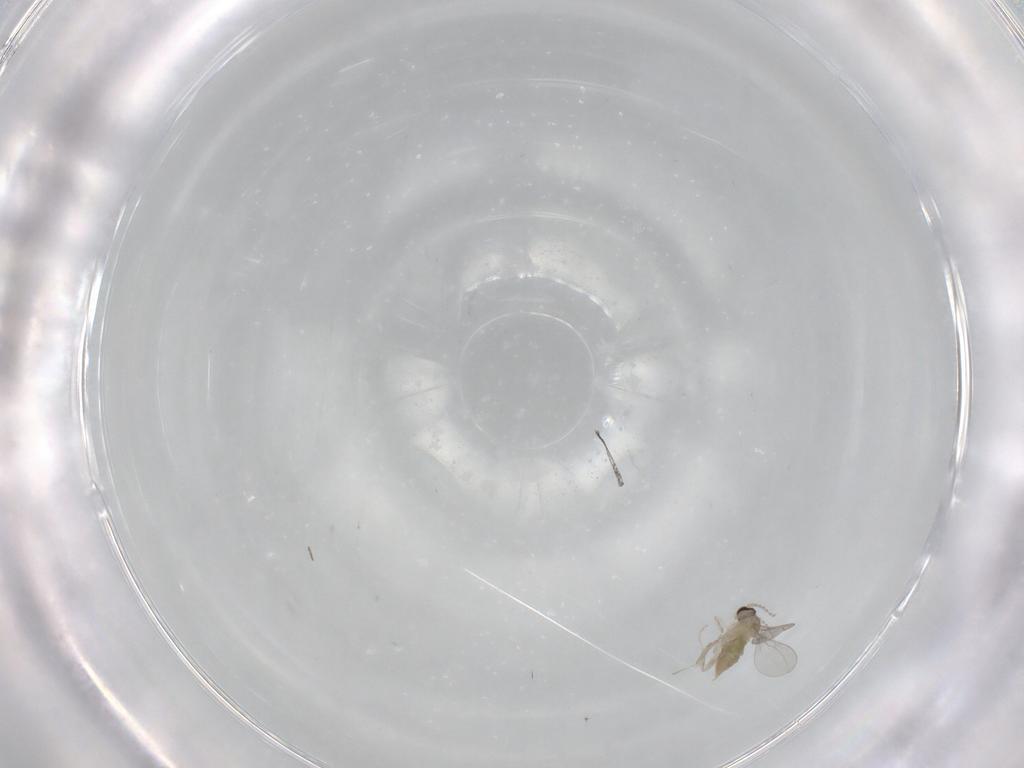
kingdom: Animalia
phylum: Arthropoda
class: Insecta
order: Diptera
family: Cecidomyiidae
